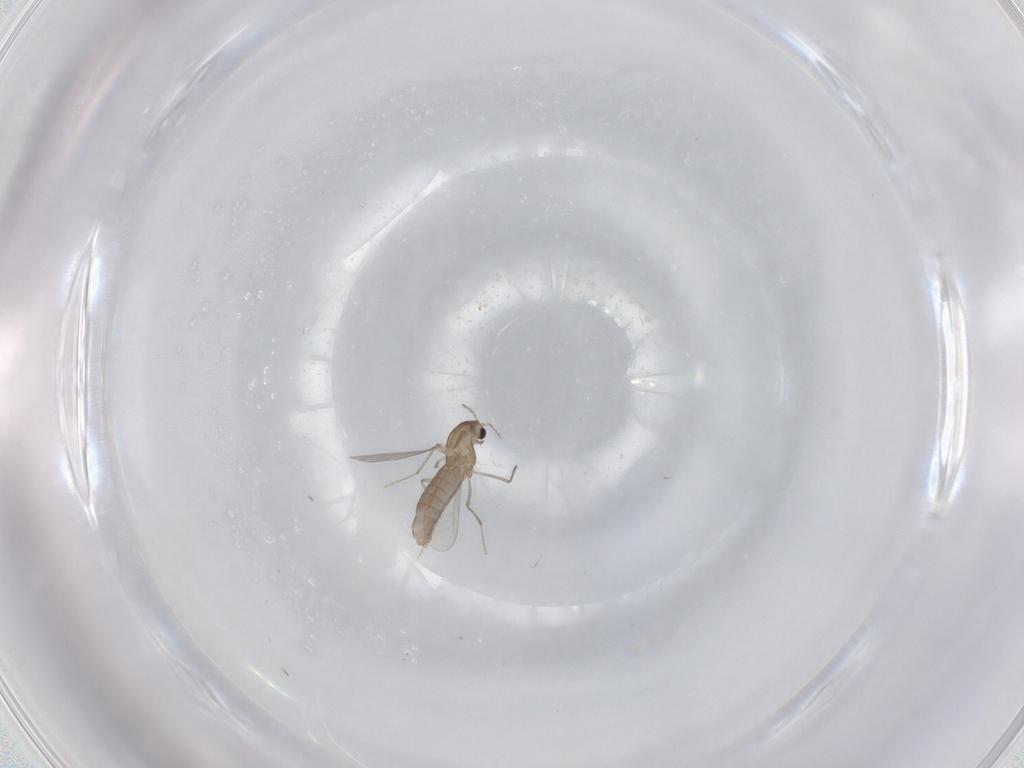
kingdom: Animalia
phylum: Arthropoda
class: Insecta
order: Diptera
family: Chironomidae
